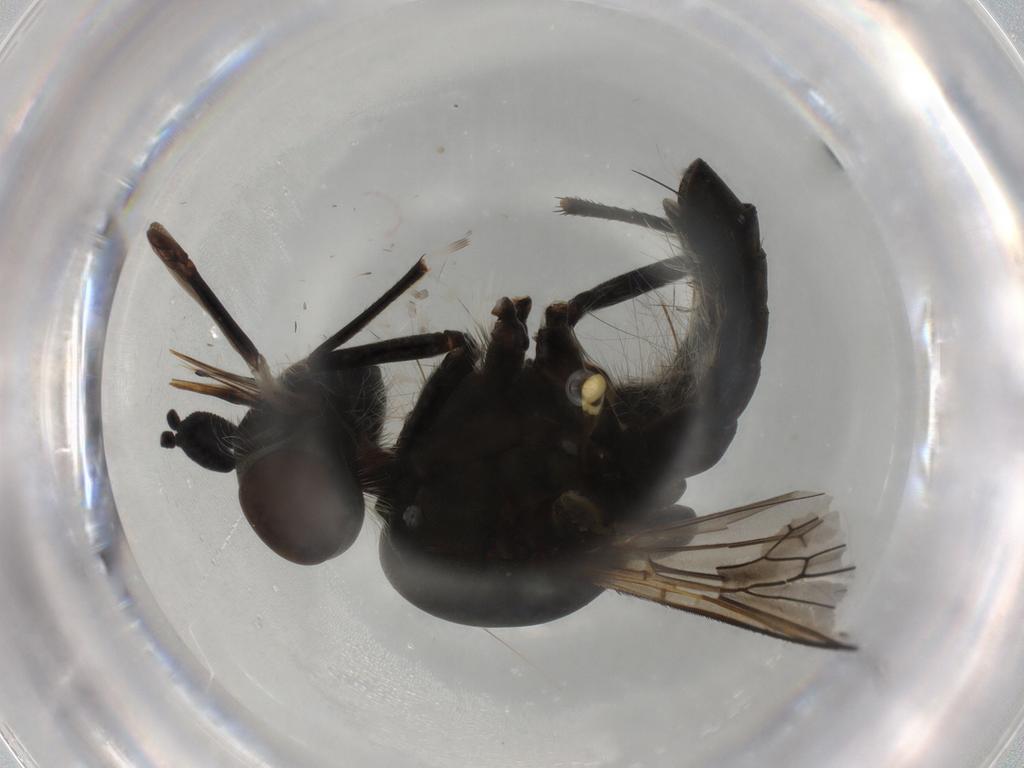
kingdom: Animalia
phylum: Arthropoda
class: Insecta
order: Diptera
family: Bombyliidae
